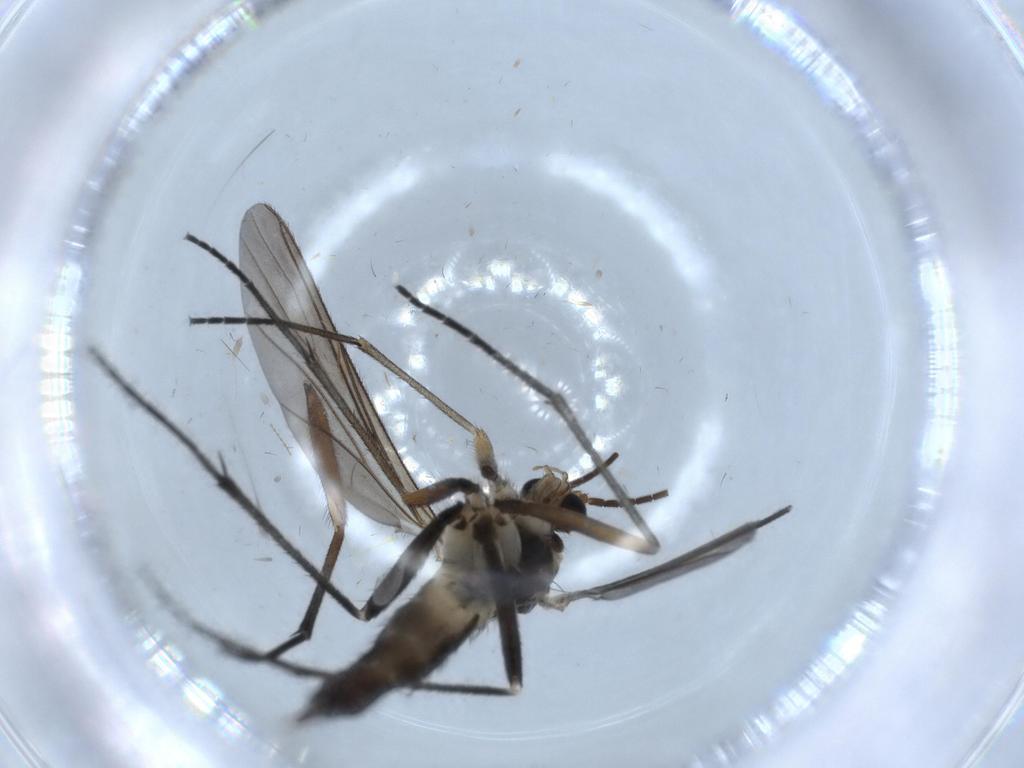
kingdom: Animalia
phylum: Arthropoda
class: Insecta
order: Diptera
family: Sciaridae
